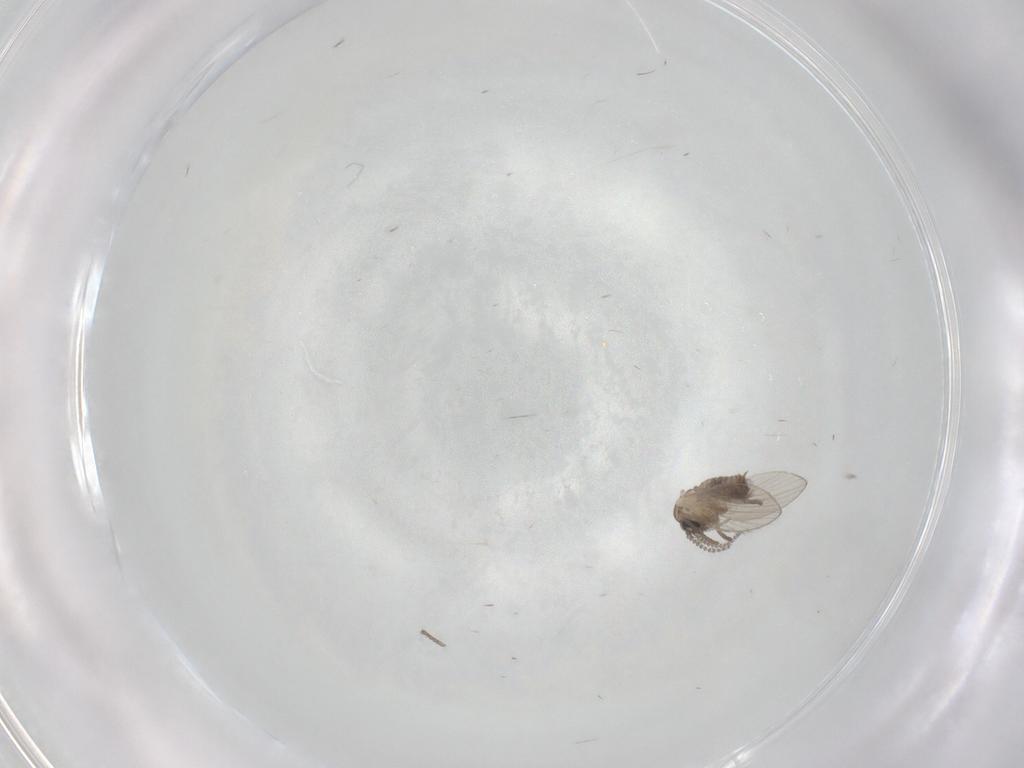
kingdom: Animalia
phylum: Arthropoda
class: Insecta
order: Diptera
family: Psychodidae
